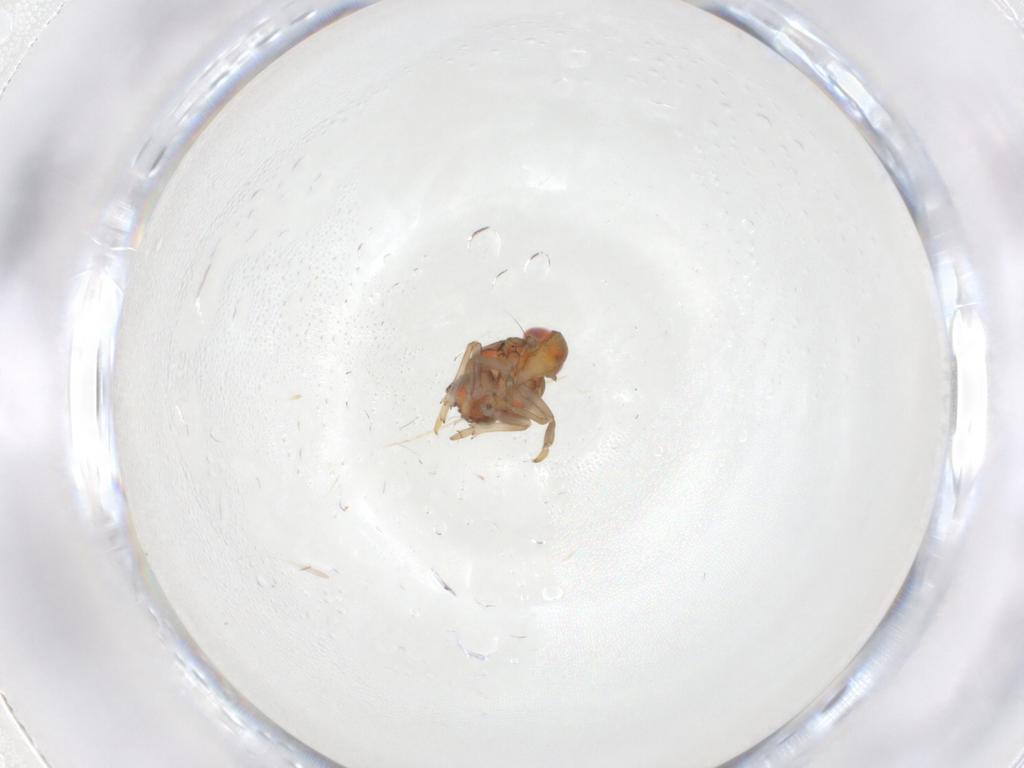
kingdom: Animalia
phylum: Arthropoda
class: Insecta
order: Hemiptera
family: Issidae
